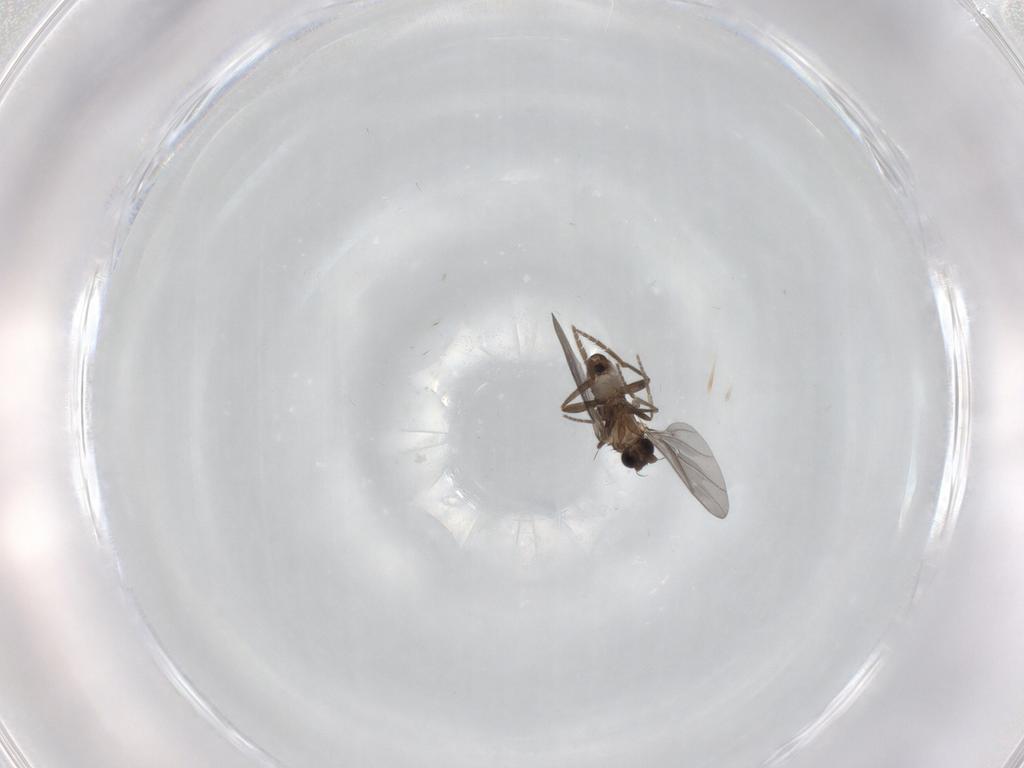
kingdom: Animalia
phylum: Arthropoda
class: Insecta
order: Diptera
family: Phoridae
